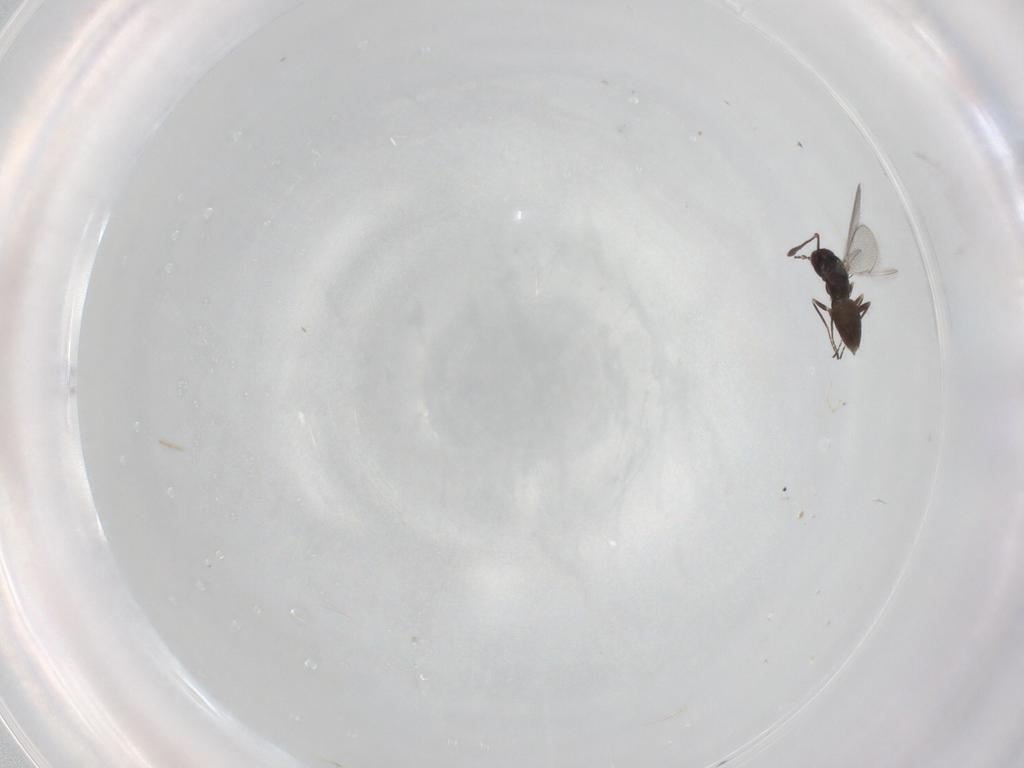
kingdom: Animalia
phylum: Arthropoda
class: Insecta
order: Hymenoptera
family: Mymaridae
